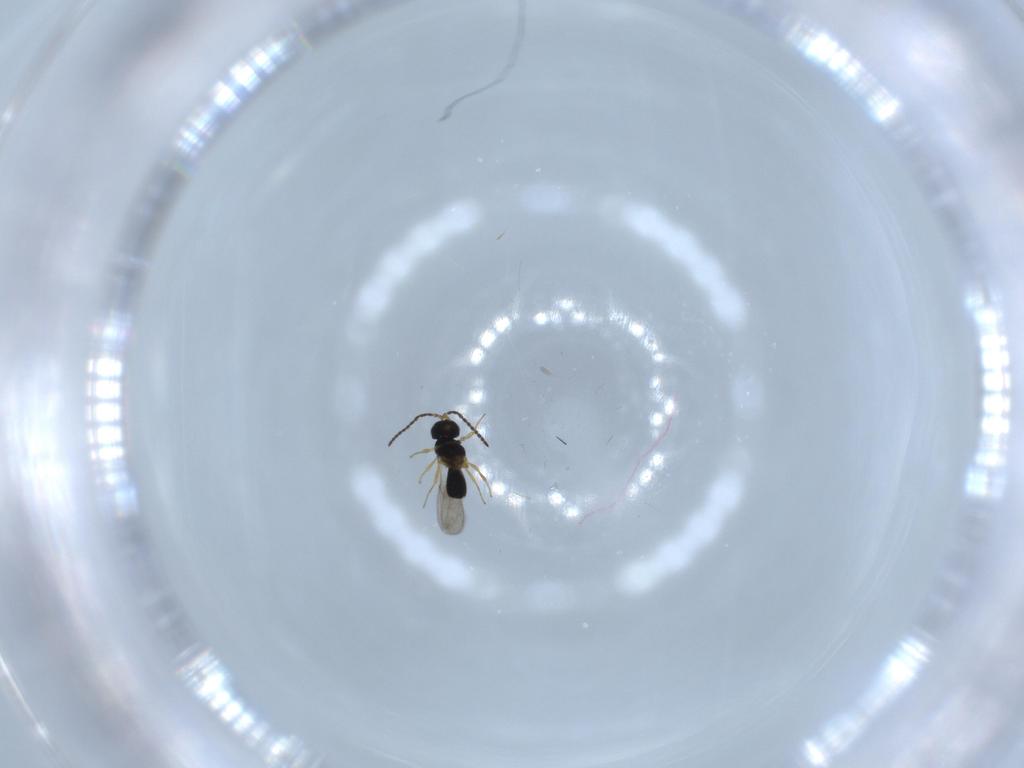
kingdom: Animalia
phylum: Arthropoda
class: Insecta
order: Hymenoptera
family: Scelionidae
